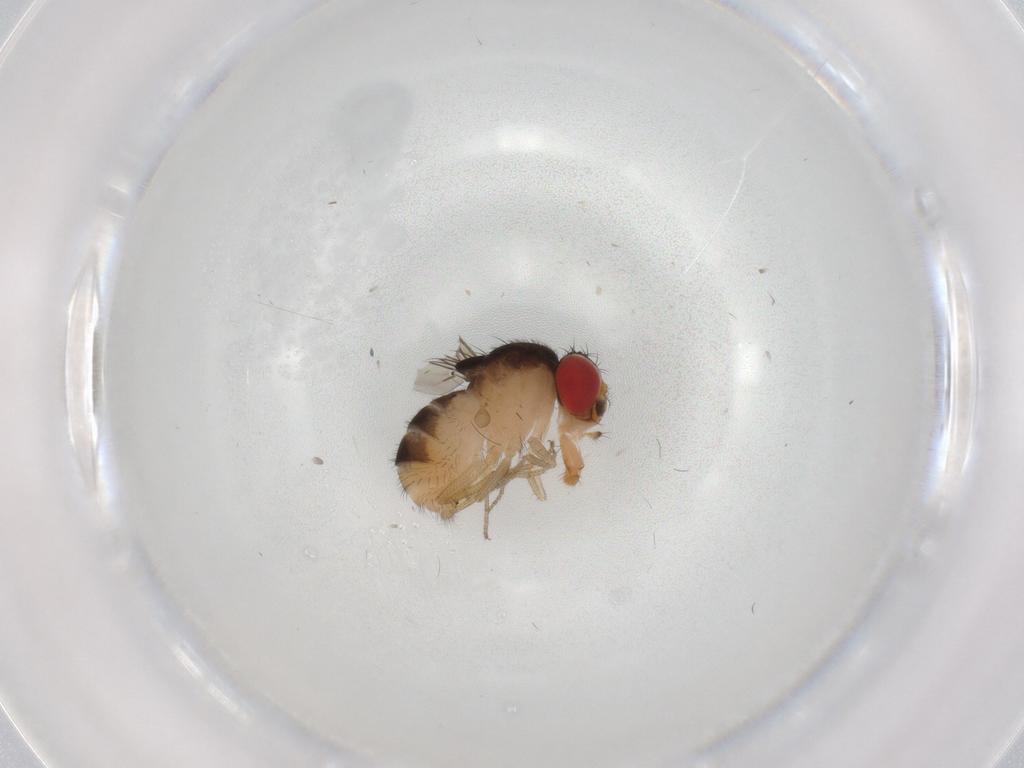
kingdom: Animalia
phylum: Arthropoda
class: Insecta
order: Diptera
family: Drosophilidae
